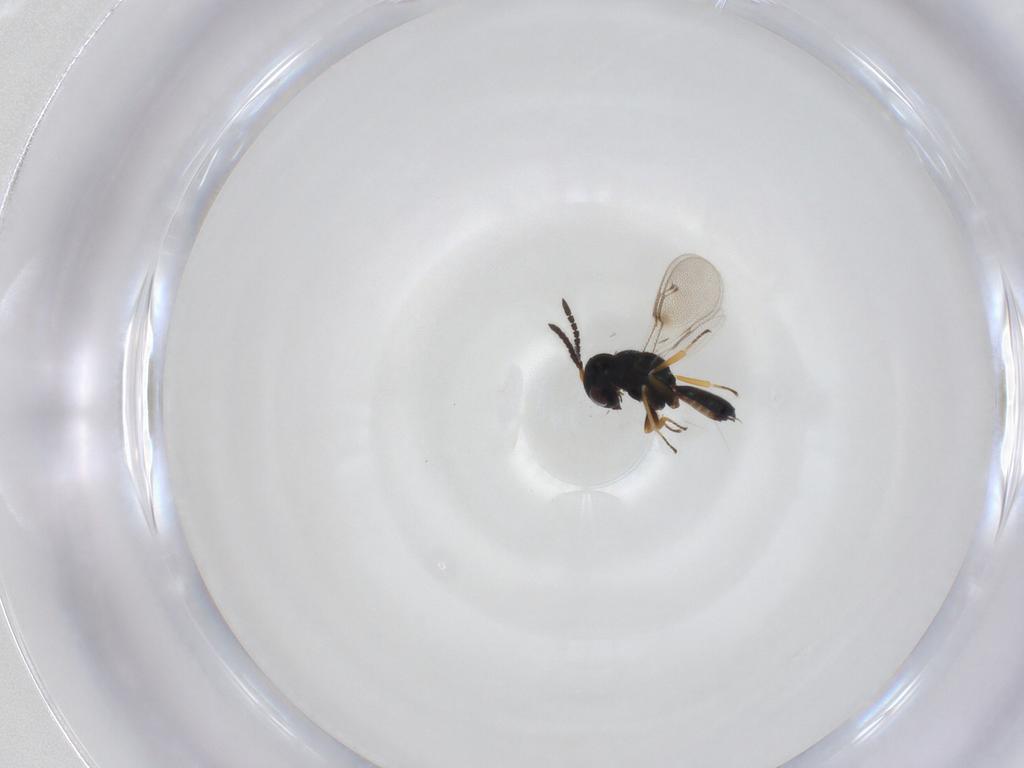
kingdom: Animalia
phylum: Arthropoda
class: Insecta
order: Hymenoptera
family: Pteromalidae
